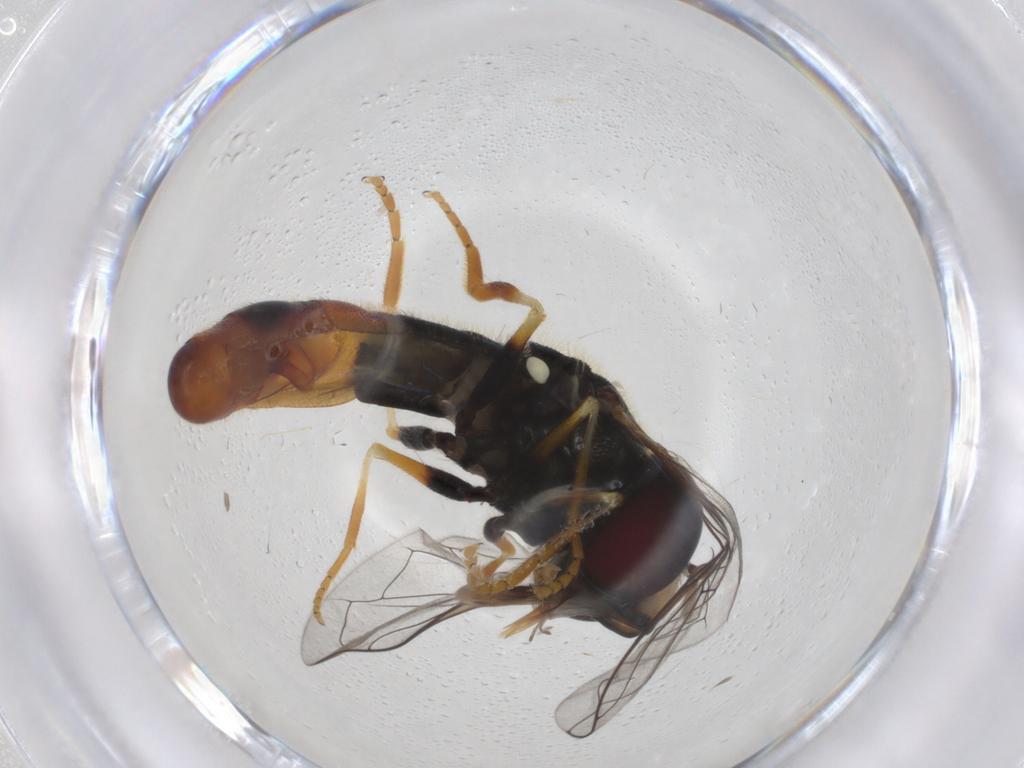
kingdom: Animalia
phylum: Arthropoda
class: Insecta
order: Diptera
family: Syrphidae
